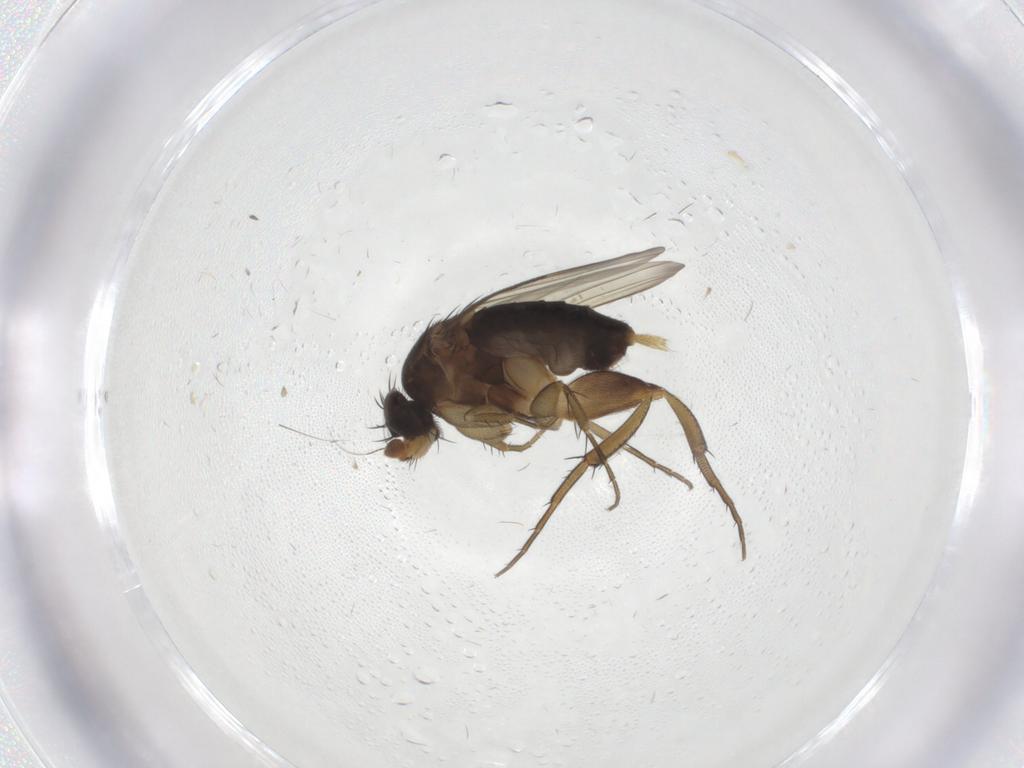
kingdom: Animalia
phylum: Arthropoda
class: Insecta
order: Diptera
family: Phoridae
